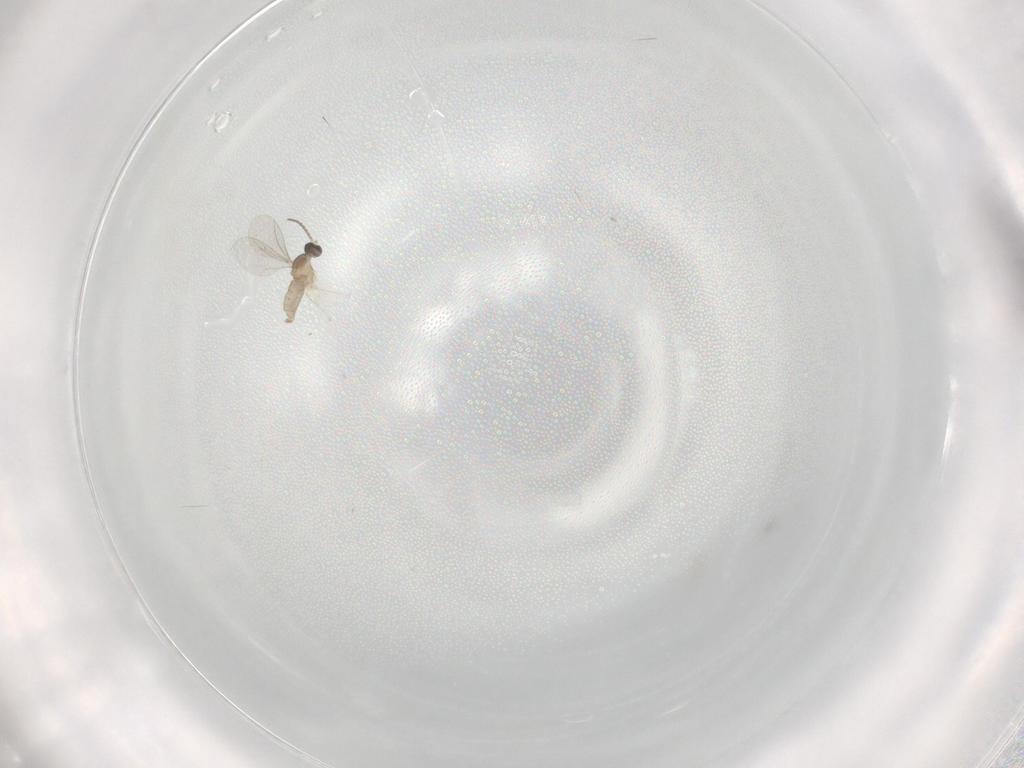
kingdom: Animalia
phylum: Arthropoda
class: Insecta
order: Diptera
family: Cecidomyiidae
